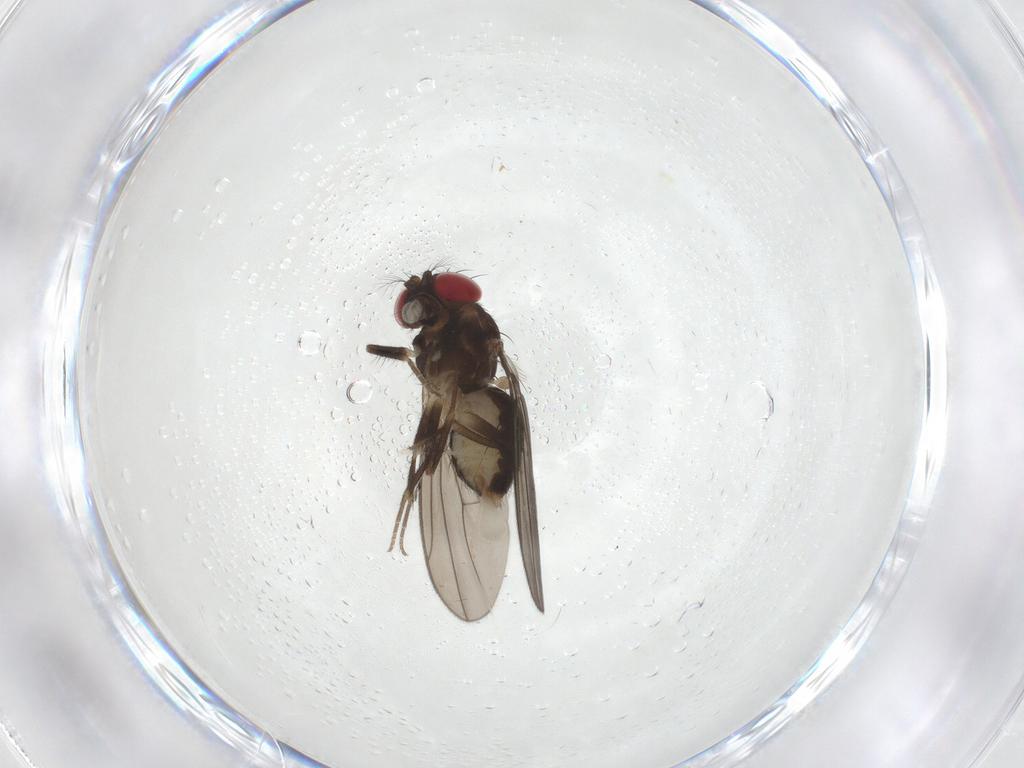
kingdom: Animalia
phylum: Arthropoda
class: Insecta
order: Diptera
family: Drosophilidae
